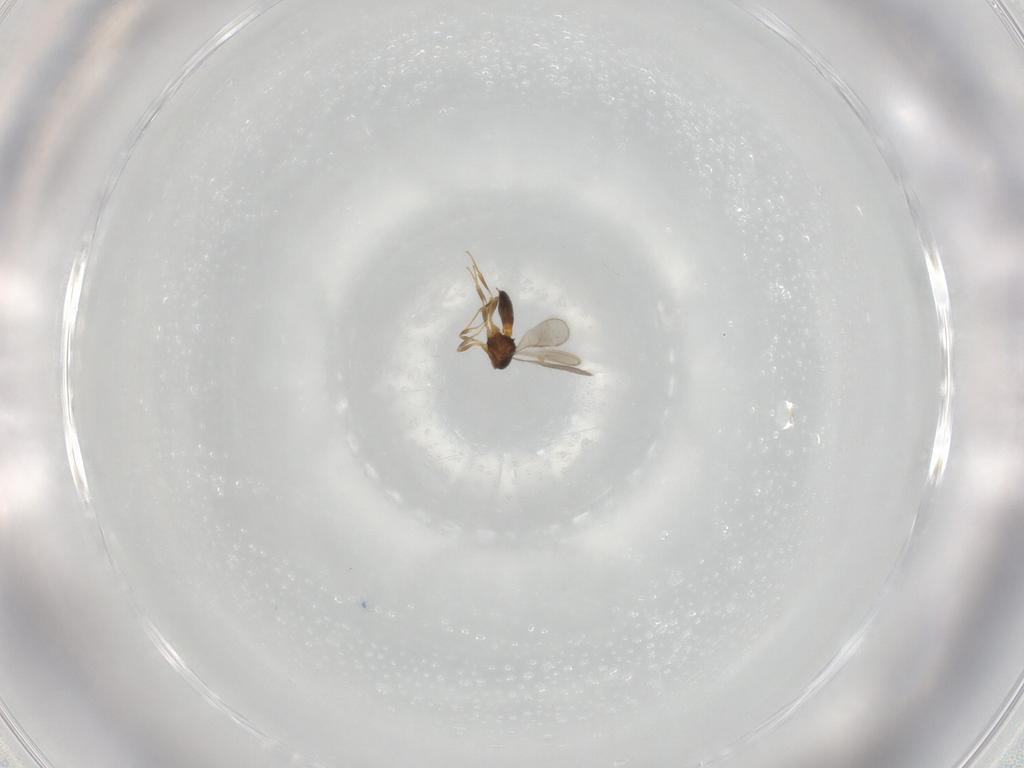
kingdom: Animalia
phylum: Arthropoda
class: Insecta
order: Hymenoptera
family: Scelionidae
